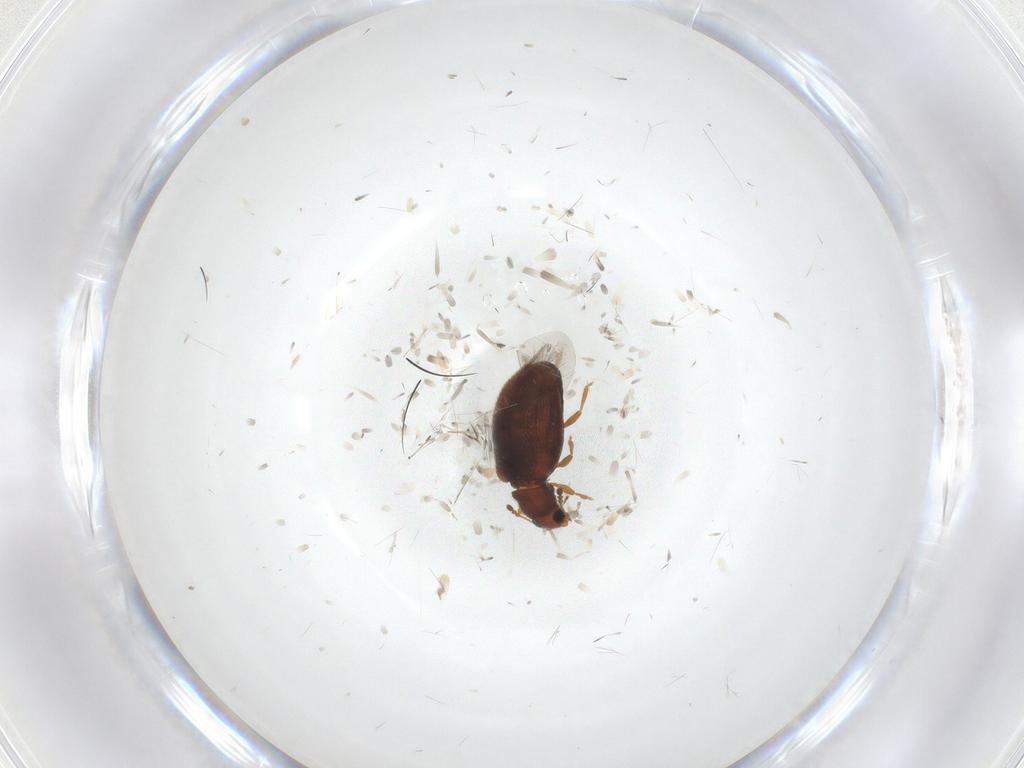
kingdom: Animalia
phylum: Arthropoda
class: Insecta
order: Coleoptera
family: Latridiidae
